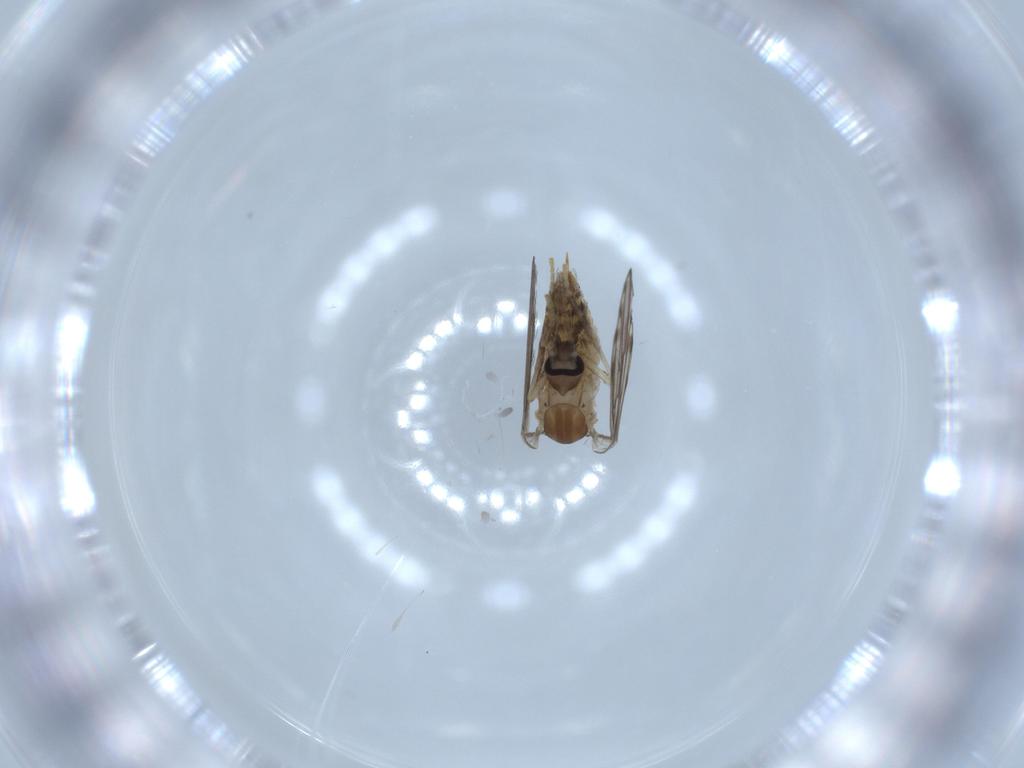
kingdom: Animalia
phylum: Arthropoda
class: Insecta
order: Diptera
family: Psychodidae
